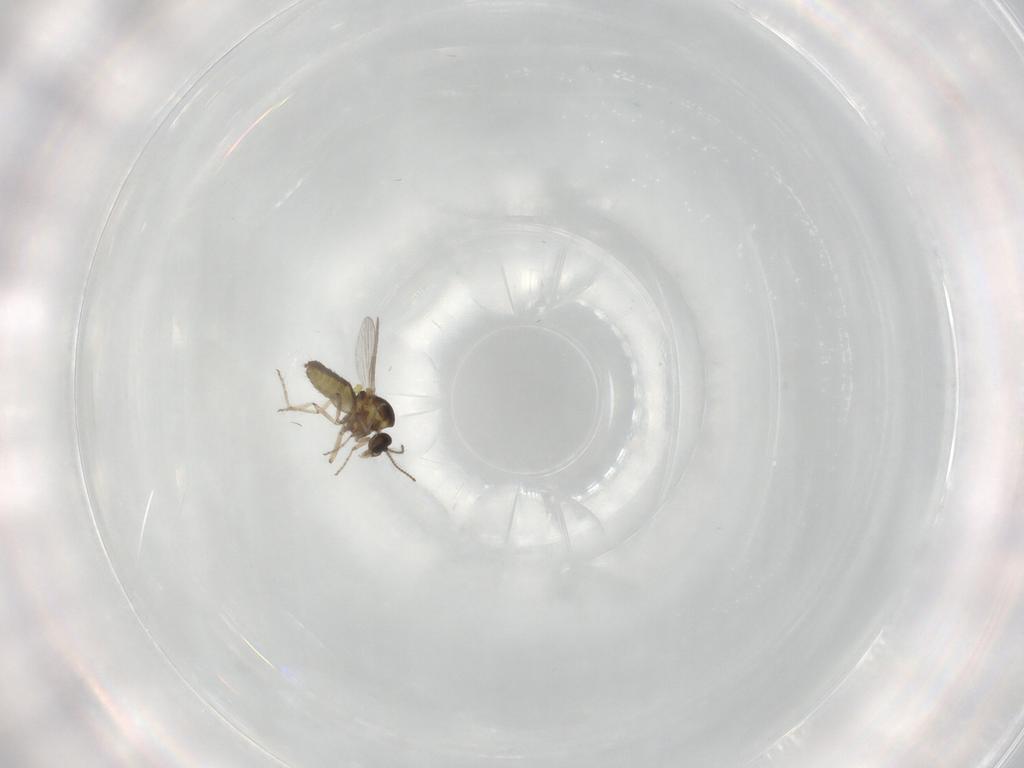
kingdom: Animalia
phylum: Arthropoda
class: Insecta
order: Diptera
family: Ceratopogonidae
